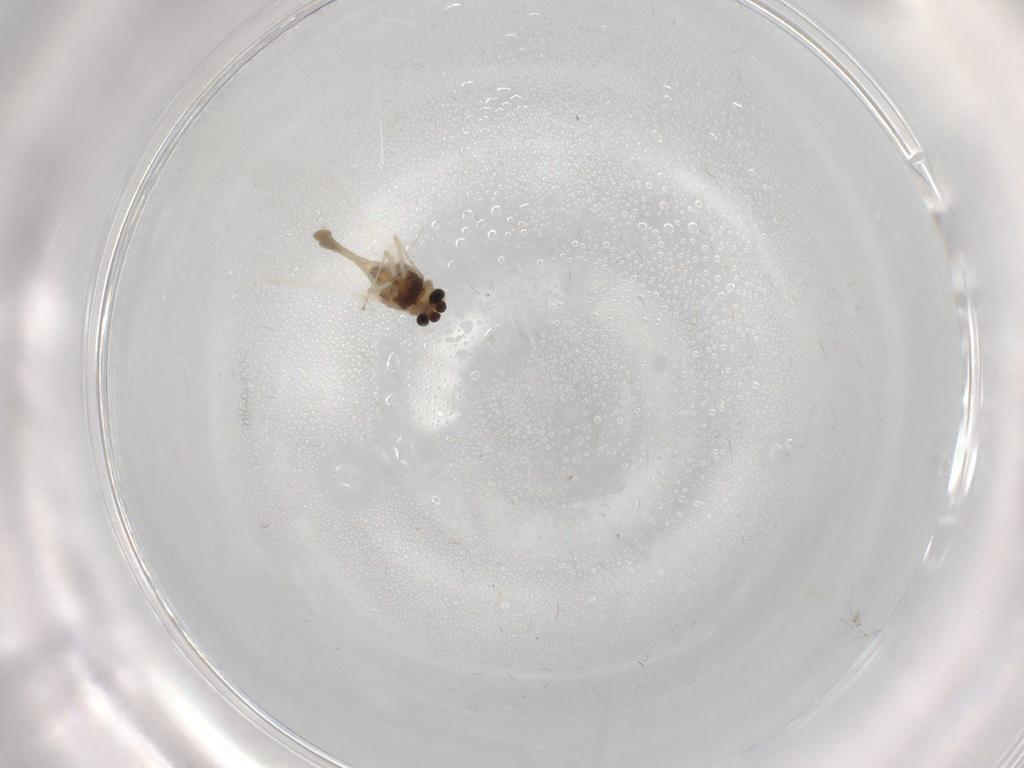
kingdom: Animalia
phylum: Arthropoda
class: Insecta
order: Diptera
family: Chironomidae
